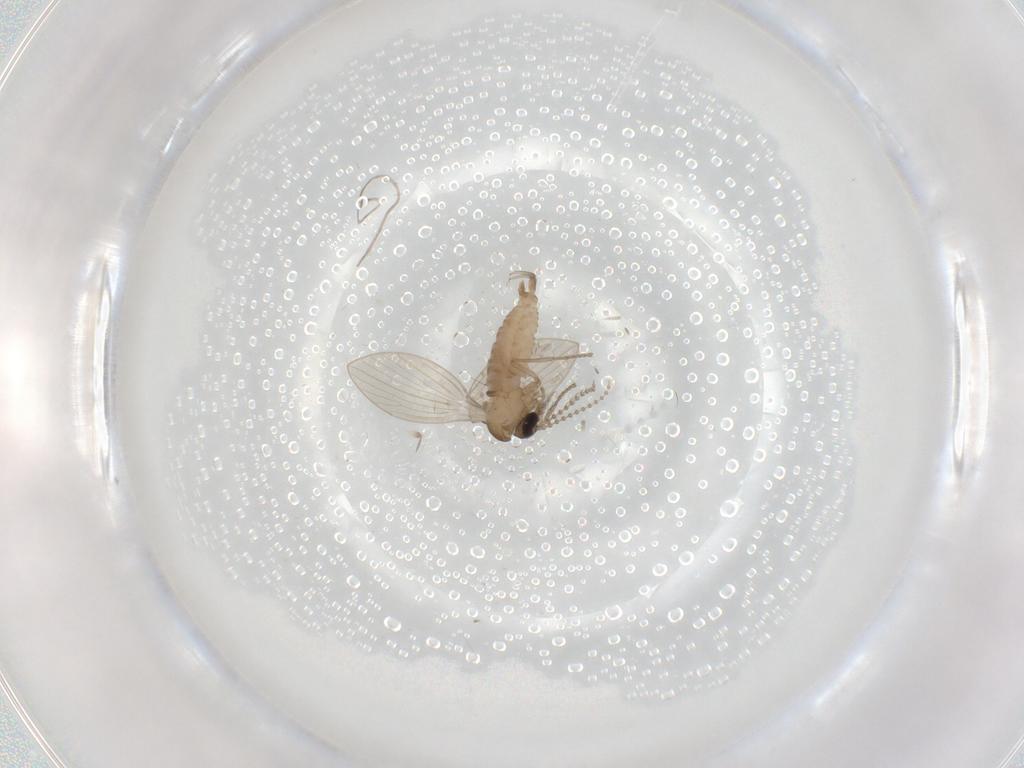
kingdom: Animalia
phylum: Arthropoda
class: Insecta
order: Diptera
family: Psychodidae
